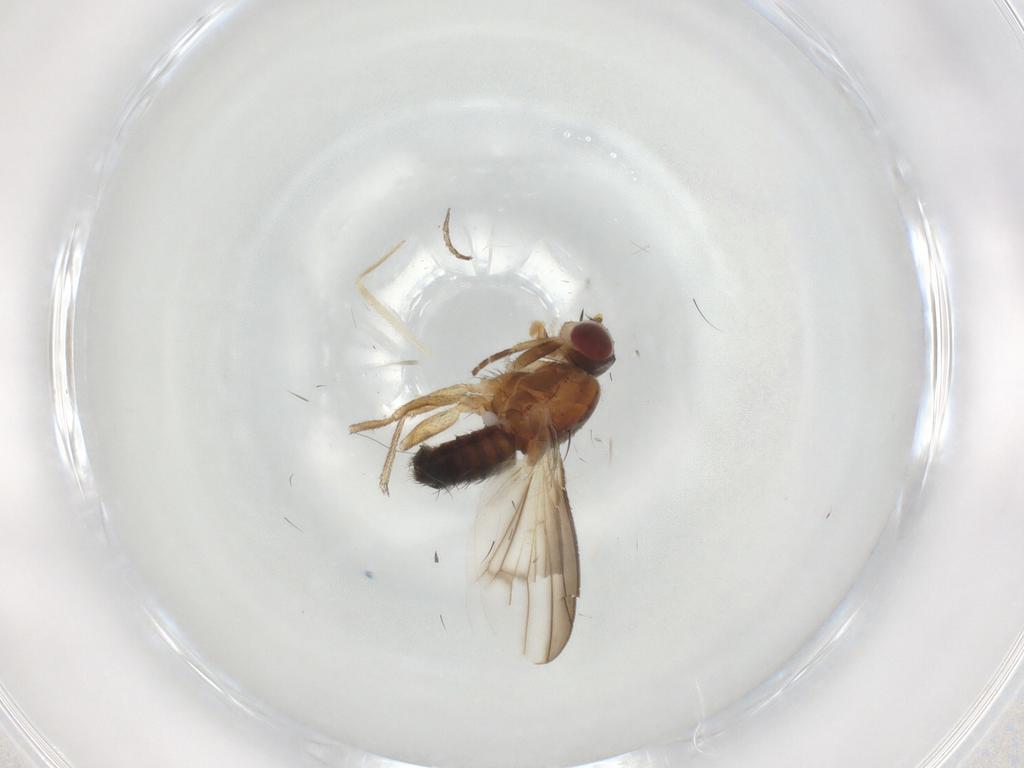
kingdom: Animalia
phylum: Arthropoda
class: Insecta
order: Diptera
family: Heleomyzidae
